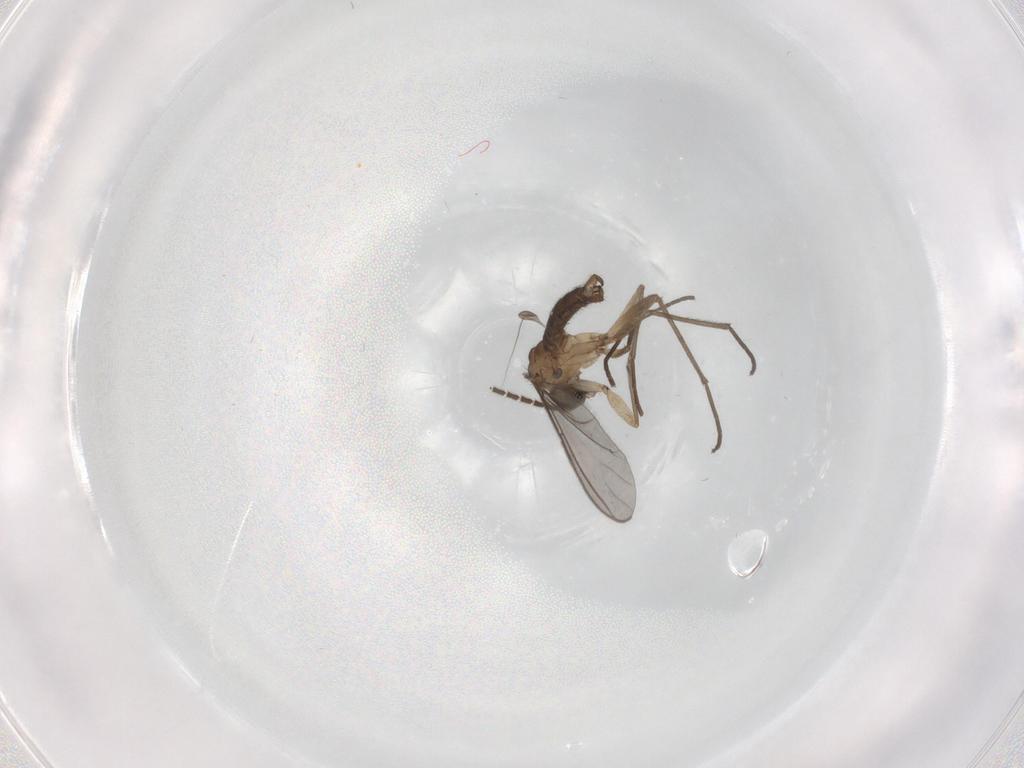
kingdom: Animalia
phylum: Arthropoda
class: Insecta
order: Diptera
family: Sciaridae
